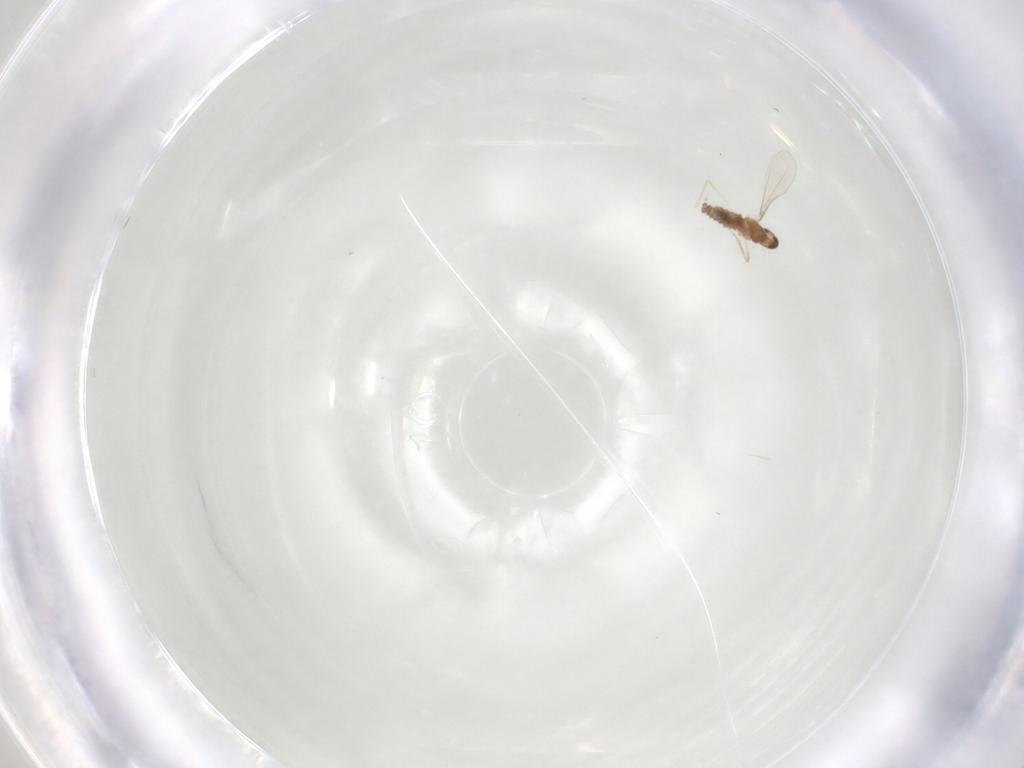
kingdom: Animalia
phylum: Arthropoda
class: Insecta
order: Diptera
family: Cecidomyiidae
